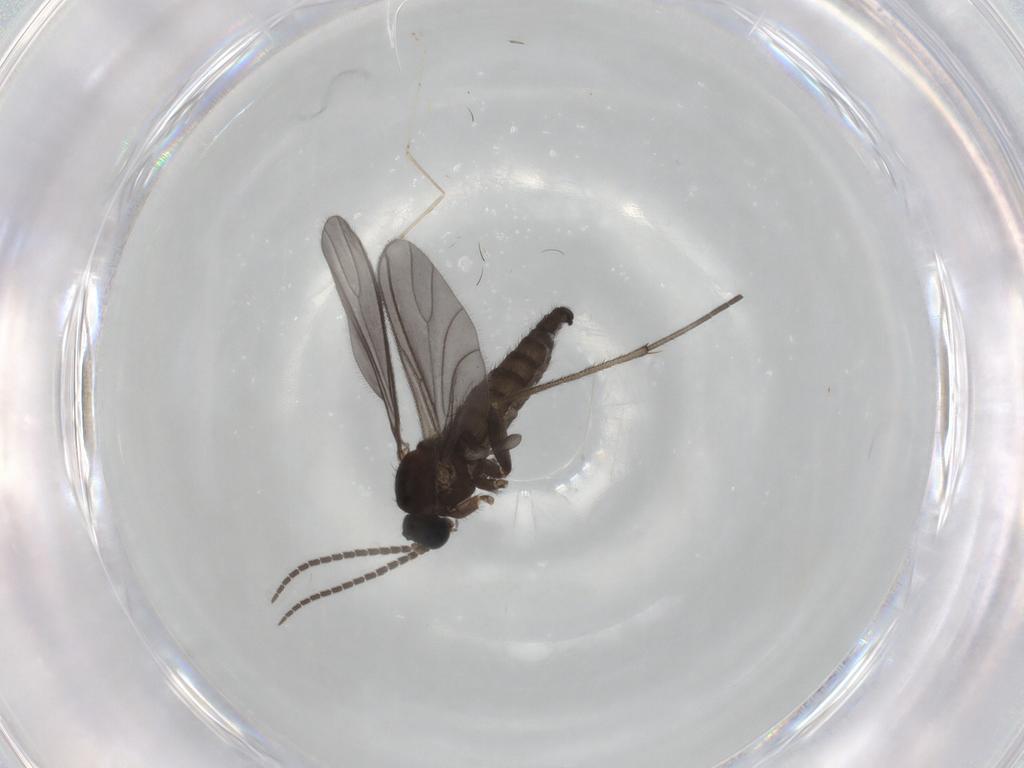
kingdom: Animalia
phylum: Arthropoda
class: Insecta
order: Diptera
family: Sciaridae
